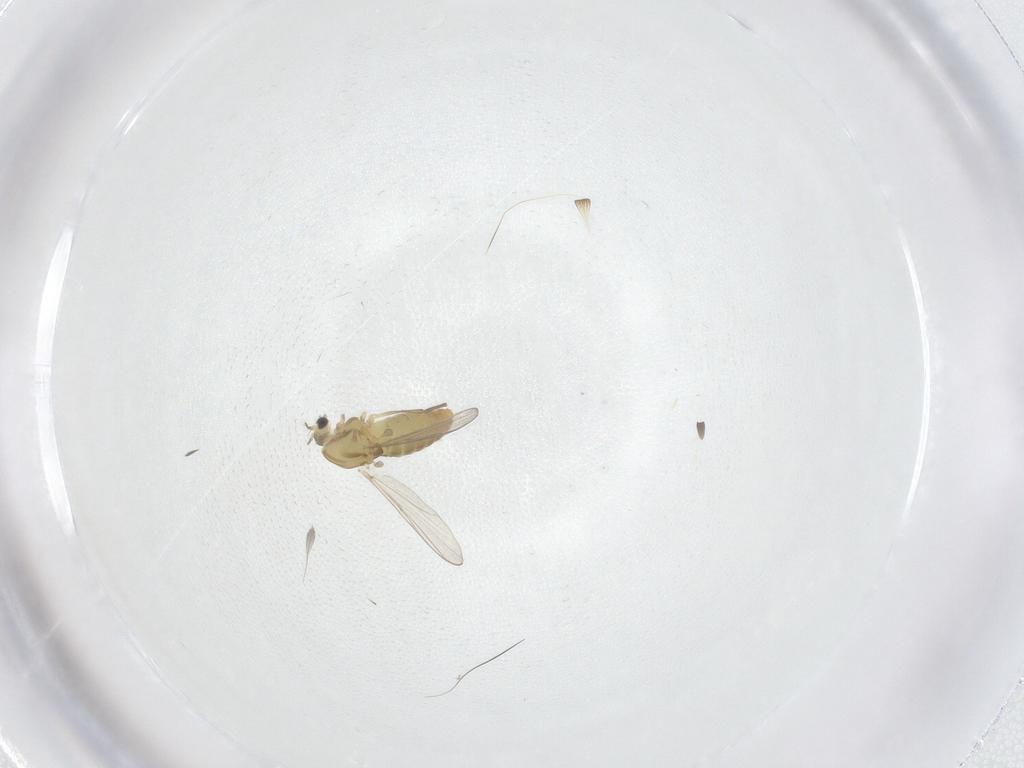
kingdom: Animalia
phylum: Arthropoda
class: Insecta
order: Diptera
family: Chironomidae
